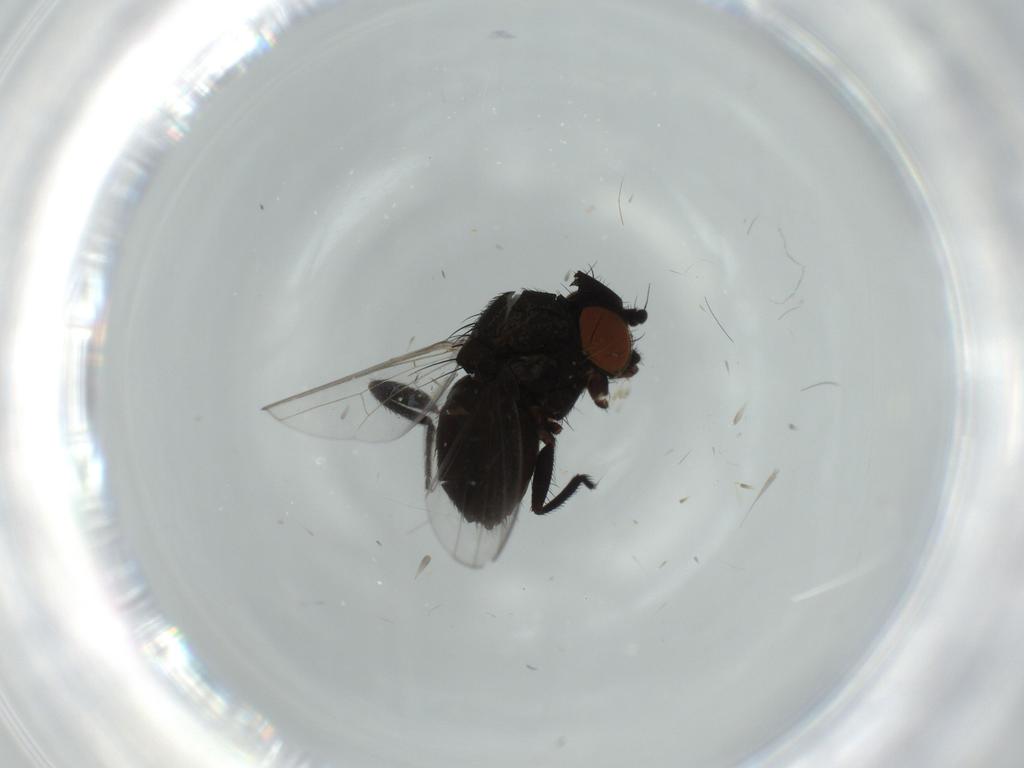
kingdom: Animalia
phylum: Arthropoda
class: Insecta
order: Diptera
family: Milichiidae
